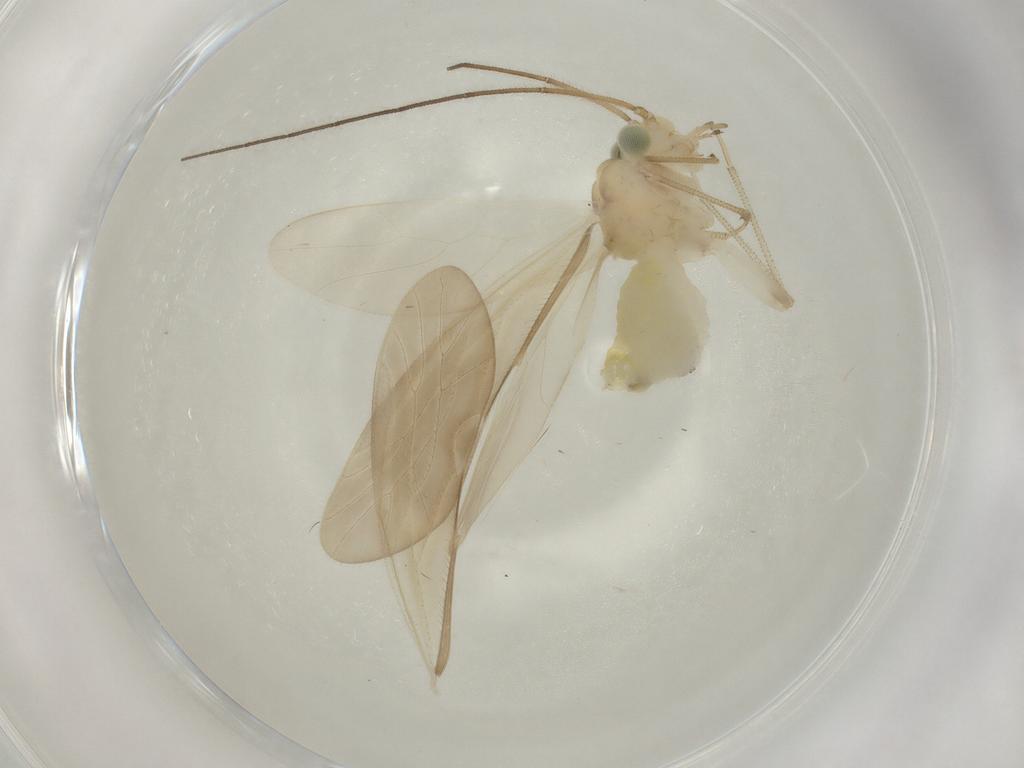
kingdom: Animalia
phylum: Arthropoda
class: Insecta
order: Psocodea
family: Caeciliusidae
